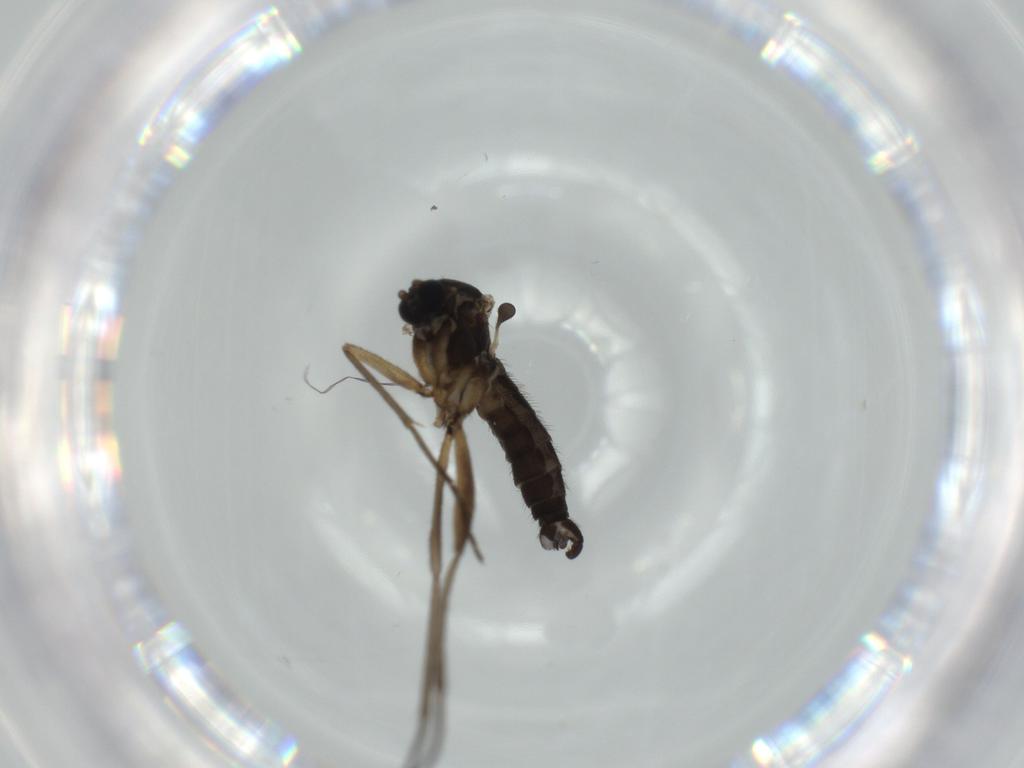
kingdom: Animalia
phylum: Arthropoda
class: Insecta
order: Diptera
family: Sciaridae
